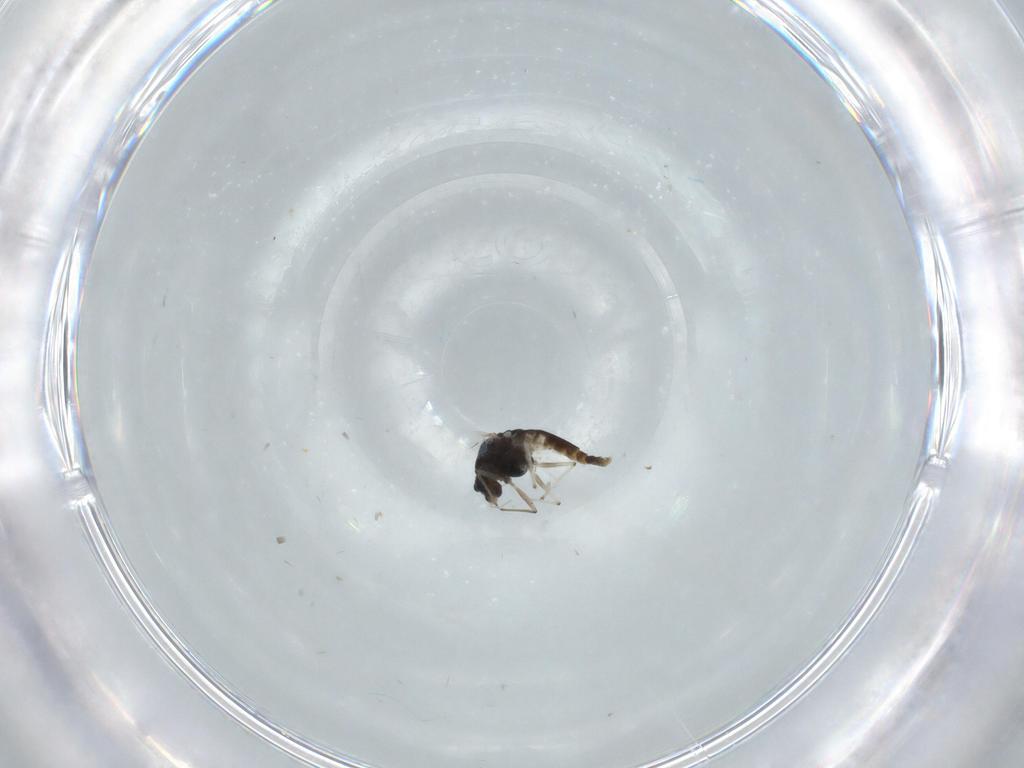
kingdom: Animalia
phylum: Arthropoda
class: Insecta
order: Diptera
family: Chironomidae
